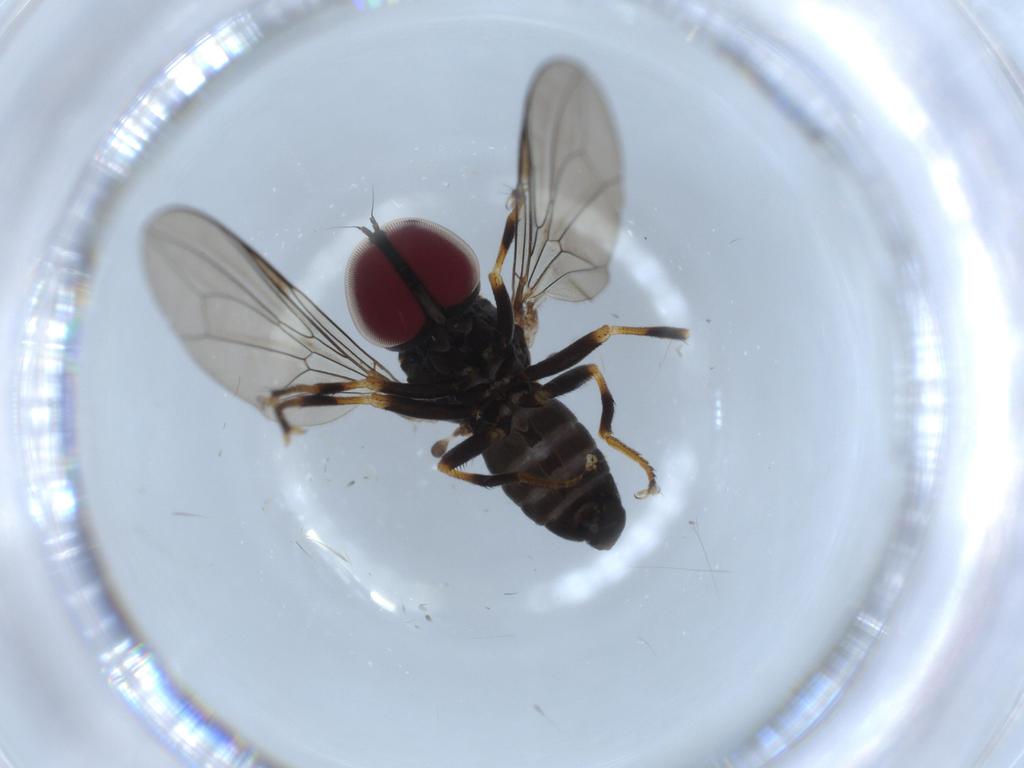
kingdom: Animalia
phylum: Arthropoda
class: Insecta
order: Diptera
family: Cecidomyiidae
